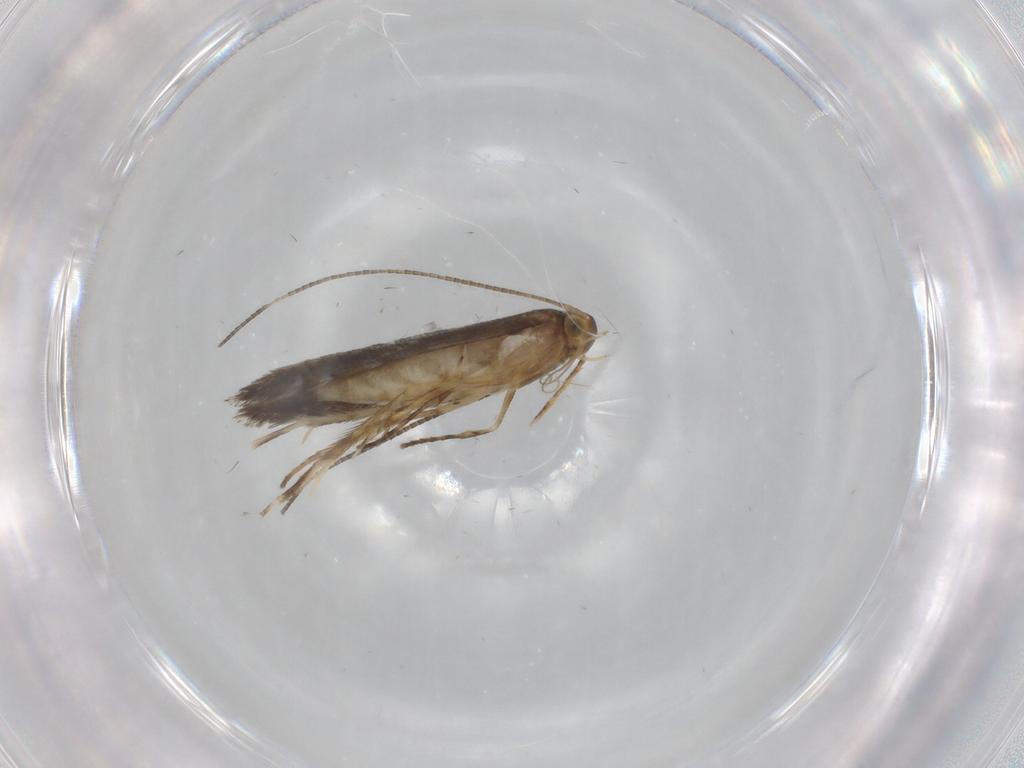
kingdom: Animalia
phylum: Arthropoda
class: Insecta
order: Lepidoptera
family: Gracillariidae
